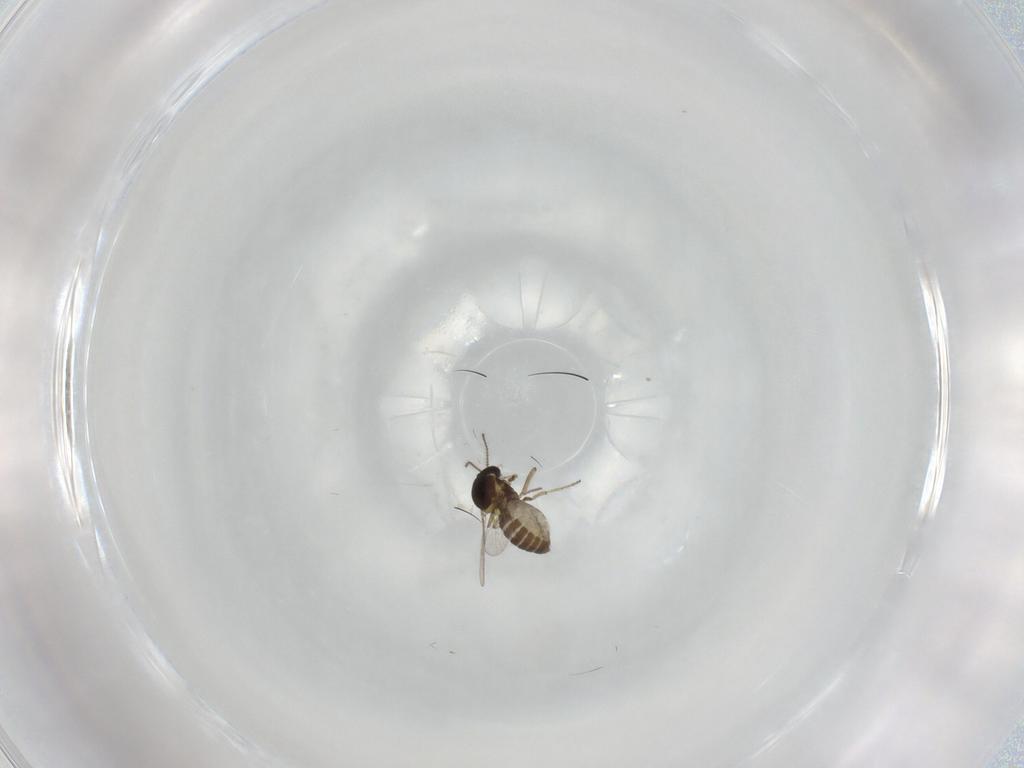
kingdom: Animalia
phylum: Arthropoda
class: Insecta
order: Diptera
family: Ceratopogonidae
